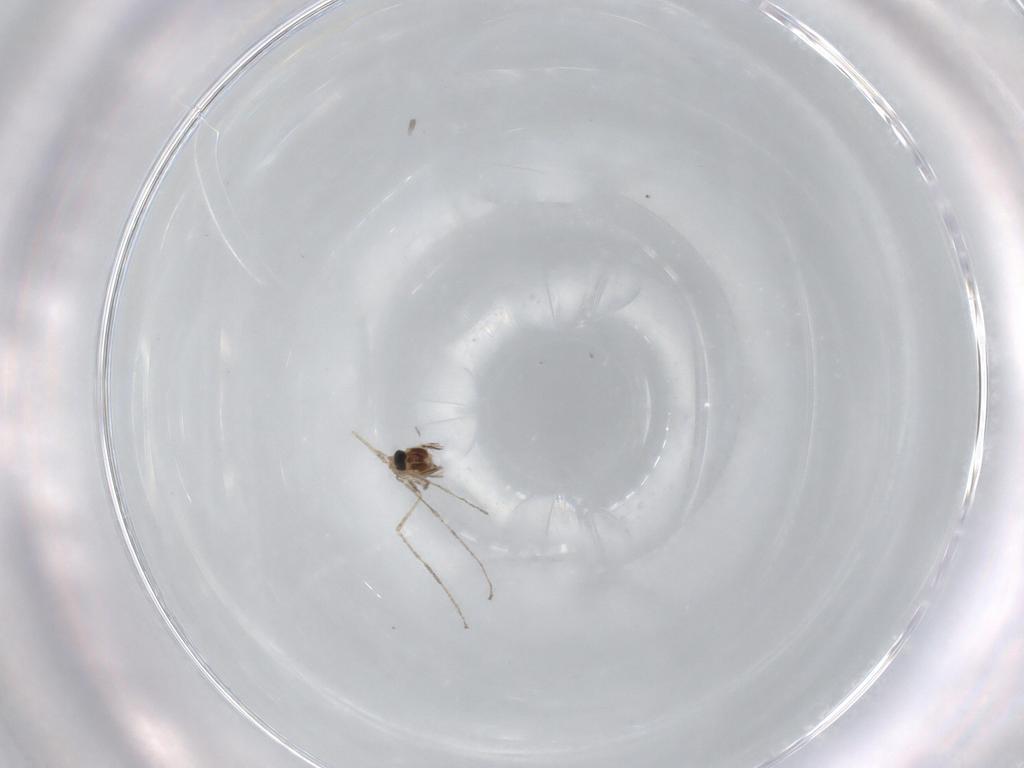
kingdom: Animalia
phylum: Arthropoda
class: Insecta
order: Diptera
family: Cecidomyiidae
